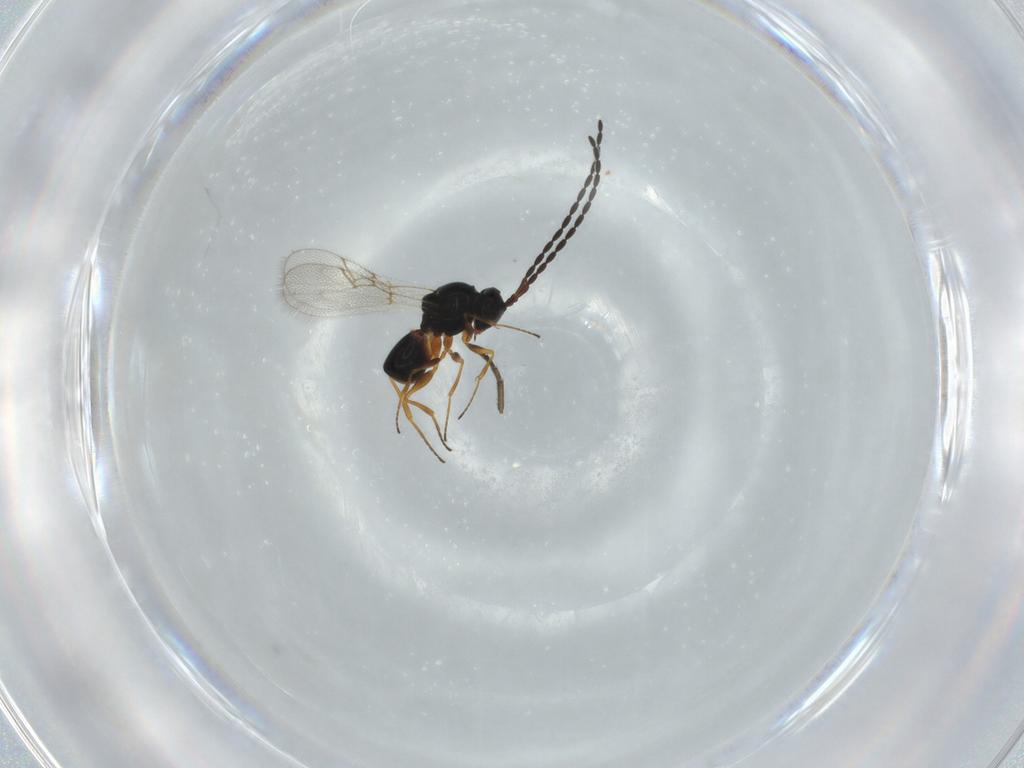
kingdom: Animalia
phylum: Arthropoda
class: Insecta
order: Hymenoptera
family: Figitidae
